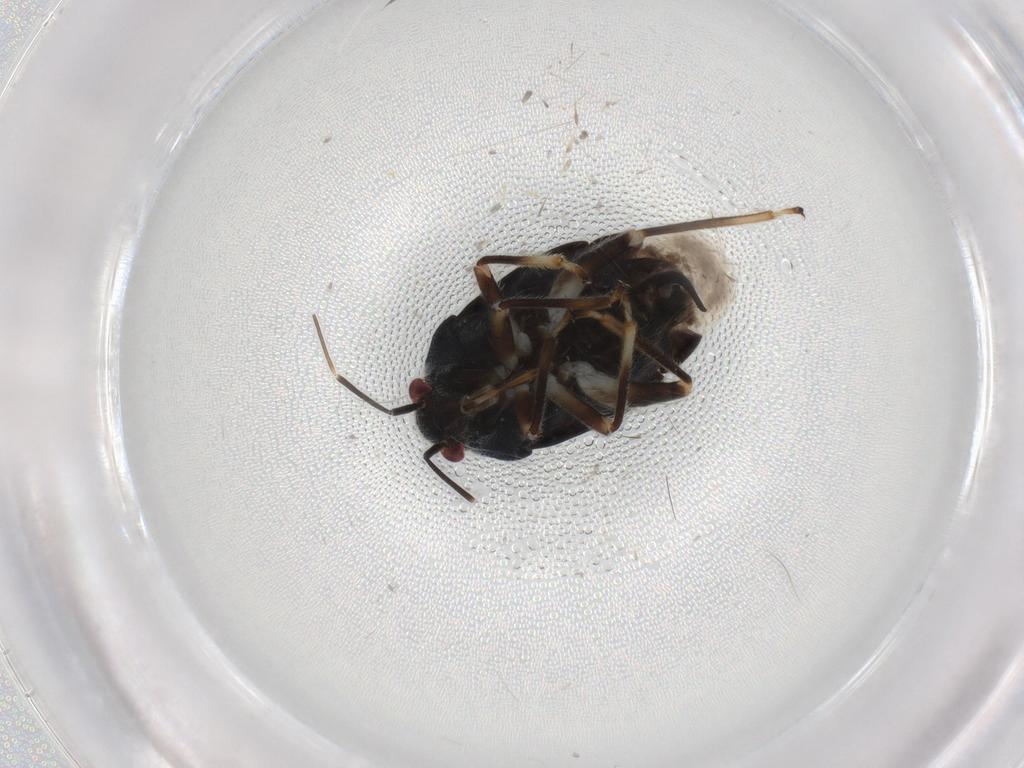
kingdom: Animalia
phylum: Arthropoda
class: Insecta
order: Hemiptera
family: Miridae
